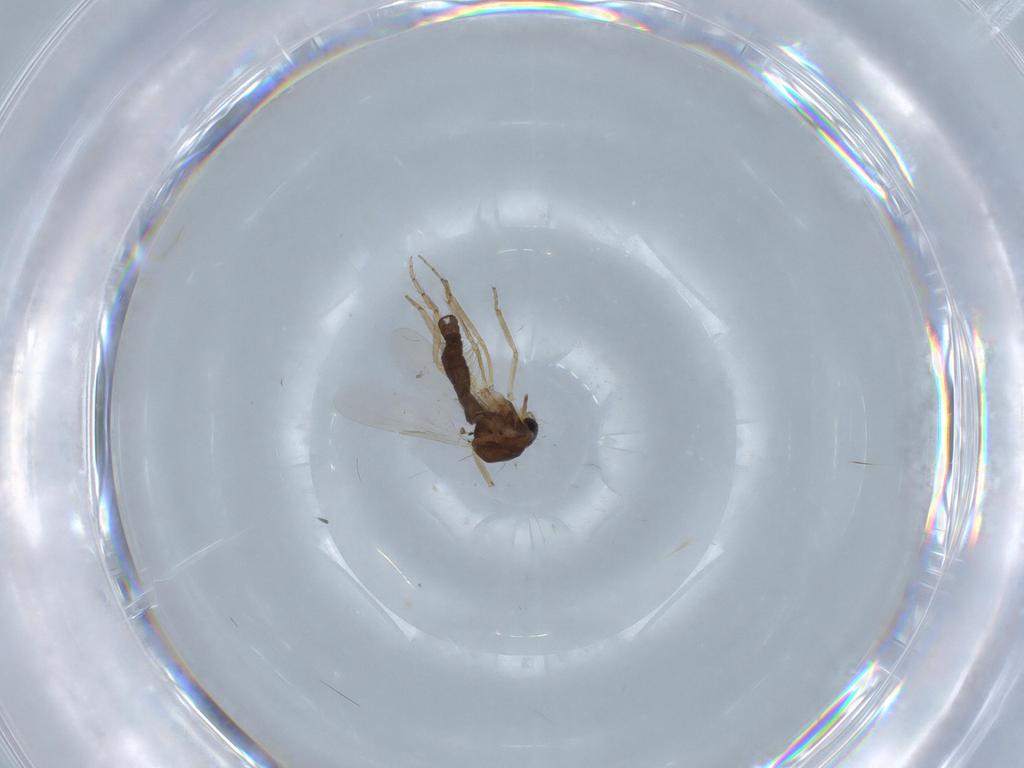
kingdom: Animalia
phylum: Arthropoda
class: Insecta
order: Diptera
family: Ceratopogonidae
